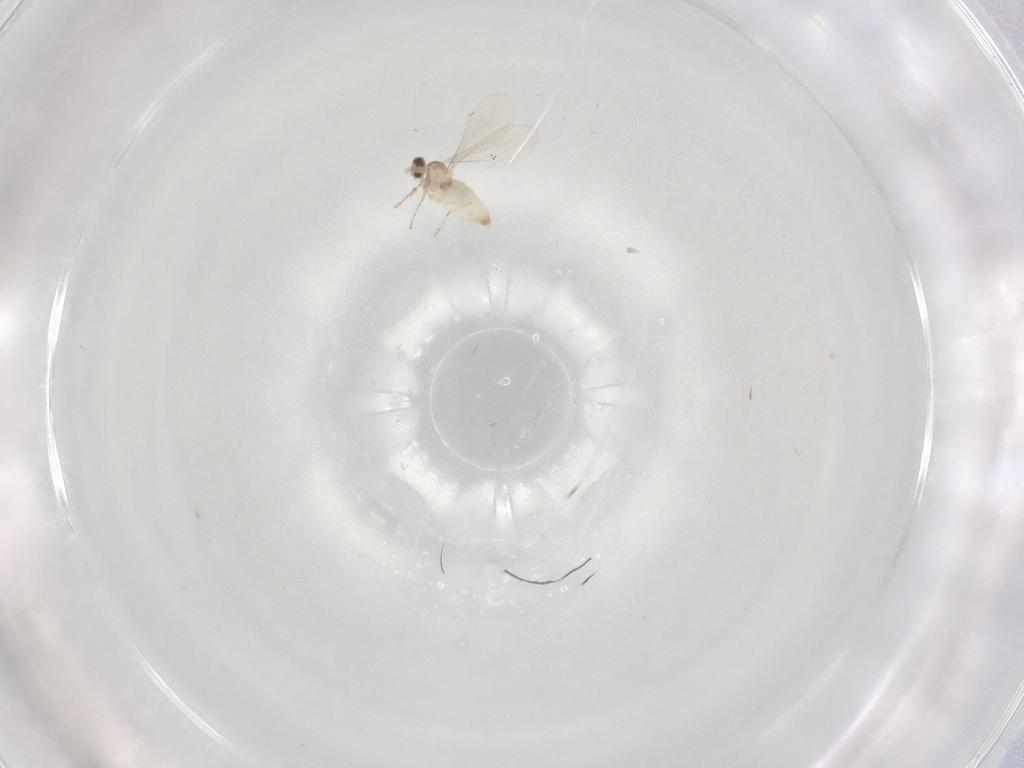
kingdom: Animalia
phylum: Arthropoda
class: Insecta
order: Diptera
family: Cecidomyiidae
